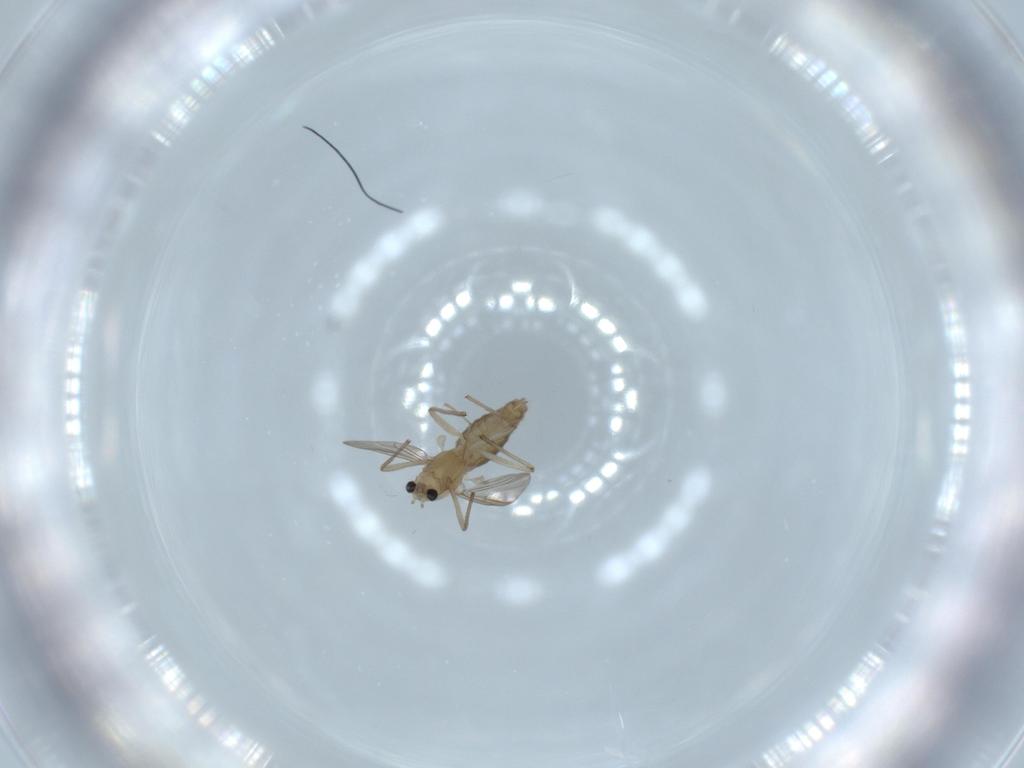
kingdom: Animalia
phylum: Arthropoda
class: Insecta
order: Diptera
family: Chironomidae
